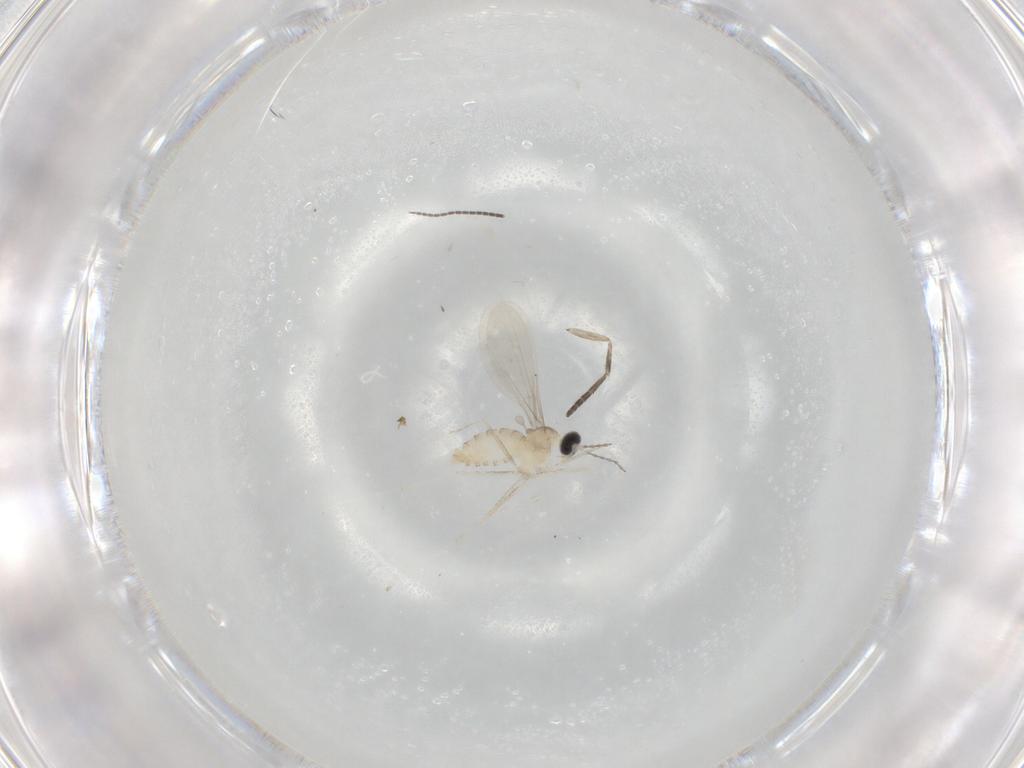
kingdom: Animalia
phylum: Arthropoda
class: Insecta
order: Diptera
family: Cecidomyiidae
